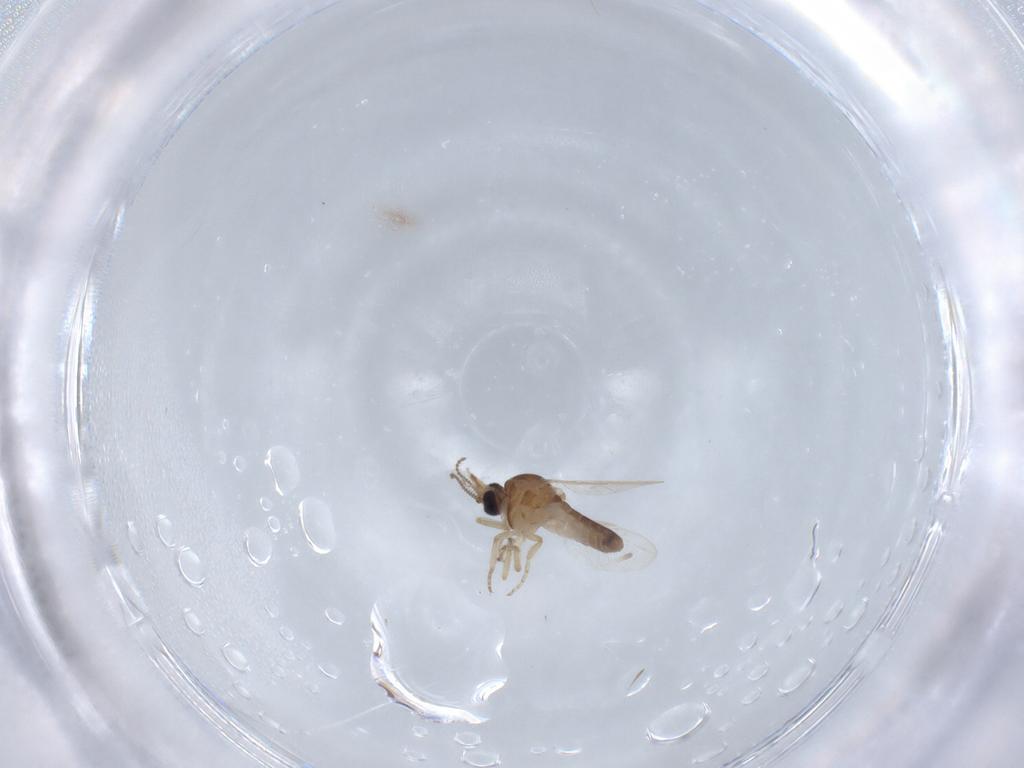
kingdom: Animalia
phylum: Arthropoda
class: Insecta
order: Diptera
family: Ceratopogonidae
